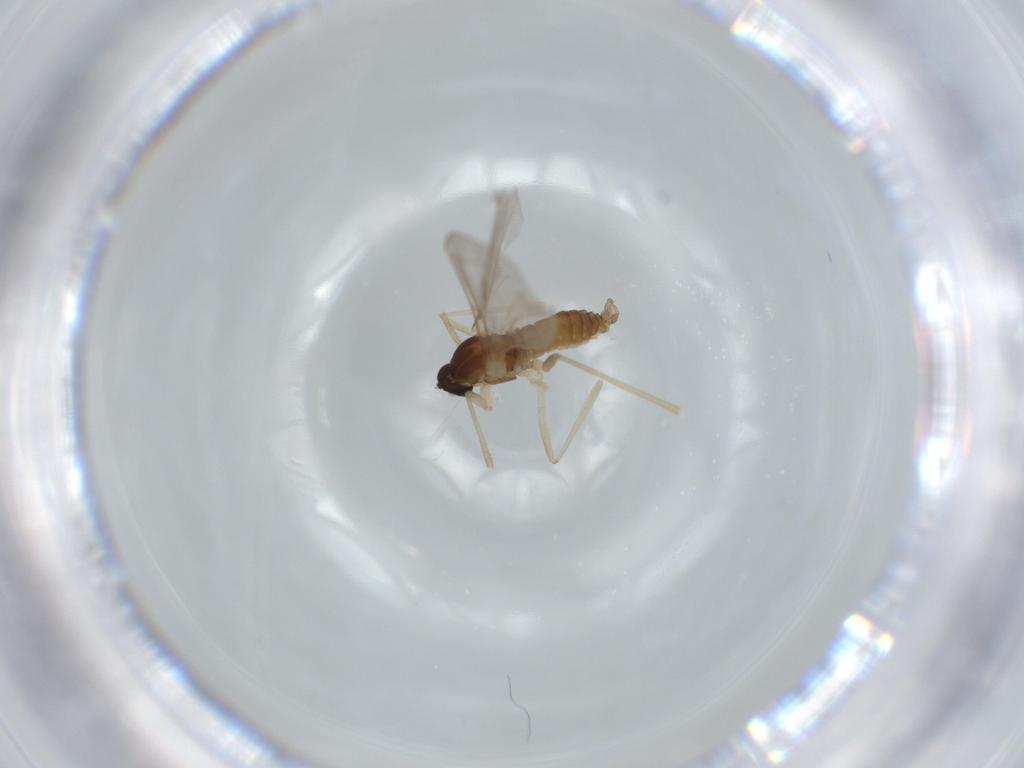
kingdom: Animalia
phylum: Arthropoda
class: Insecta
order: Diptera
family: Cecidomyiidae
